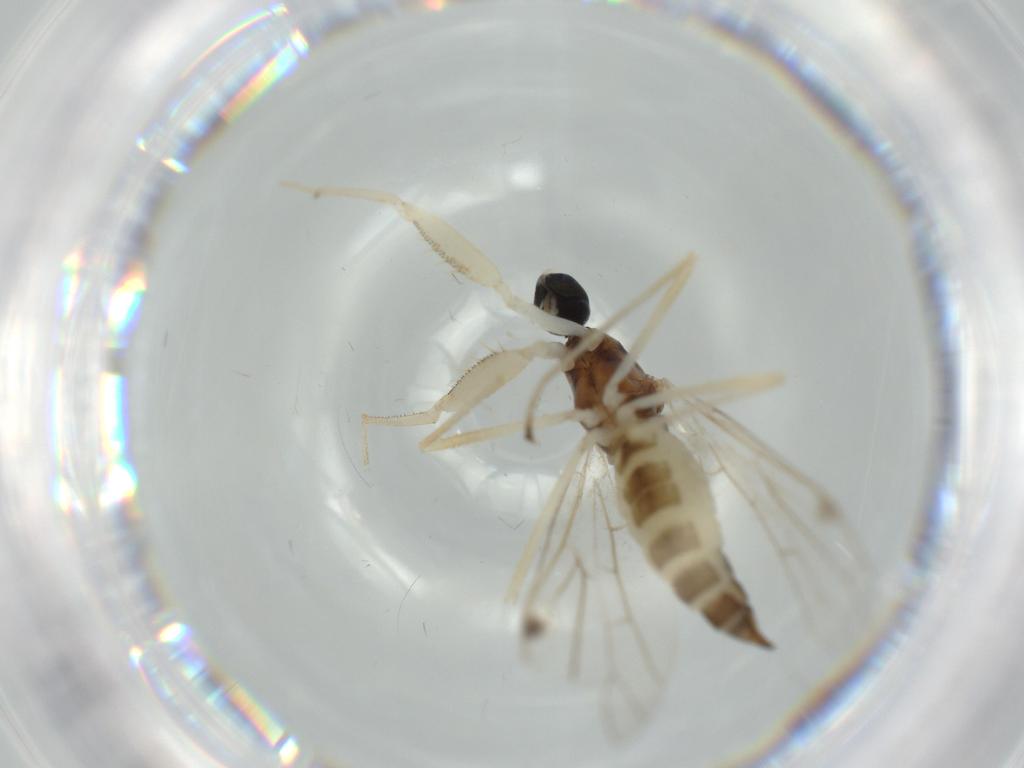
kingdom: Animalia
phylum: Arthropoda
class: Insecta
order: Diptera
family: Empididae
